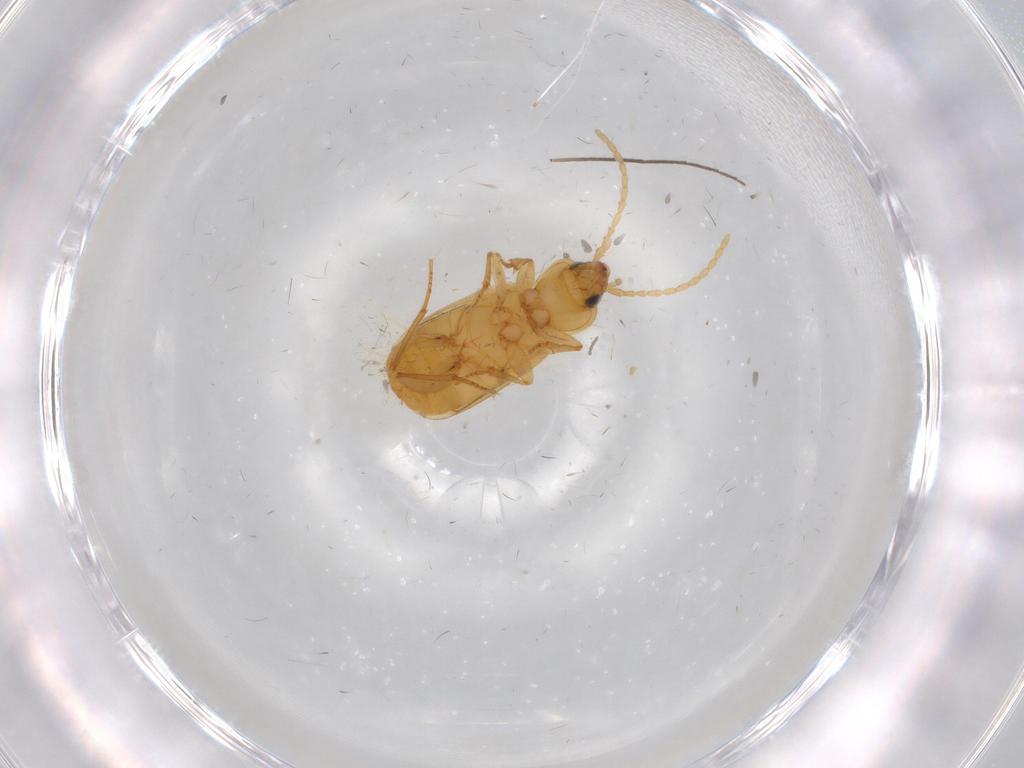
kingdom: Animalia
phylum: Arthropoda
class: Insecta
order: Coleoptera
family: Carabidae
